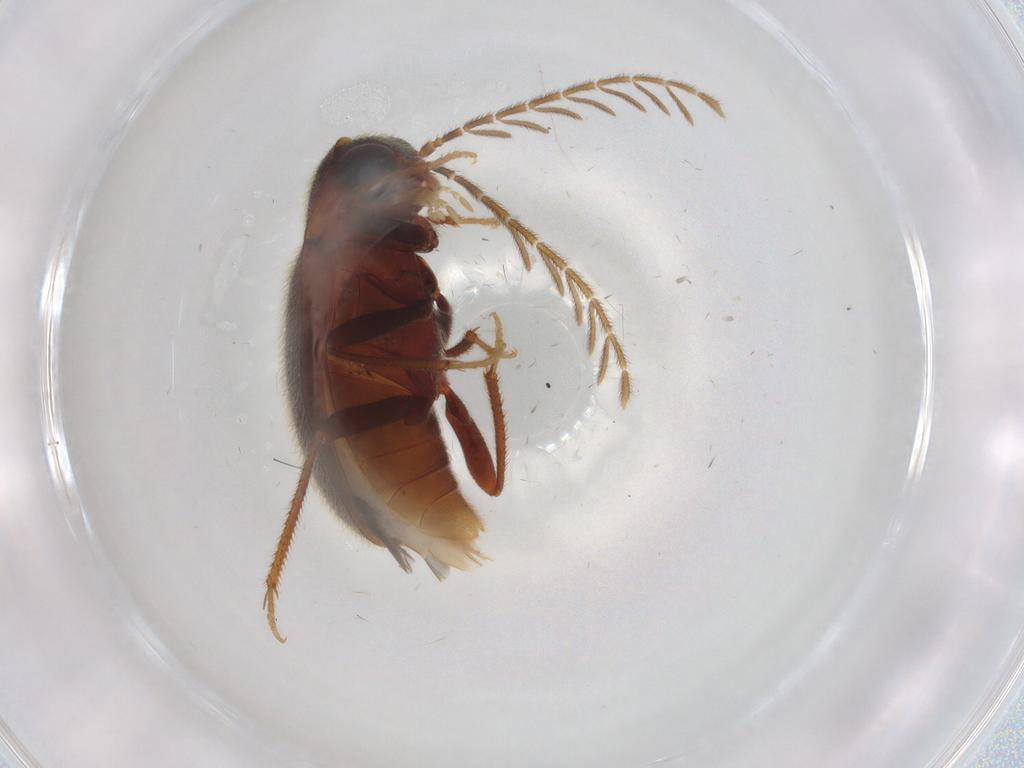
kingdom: Animalia
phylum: Arthropoda
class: Insecta
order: Coleoptera
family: Ptilodactylidae
